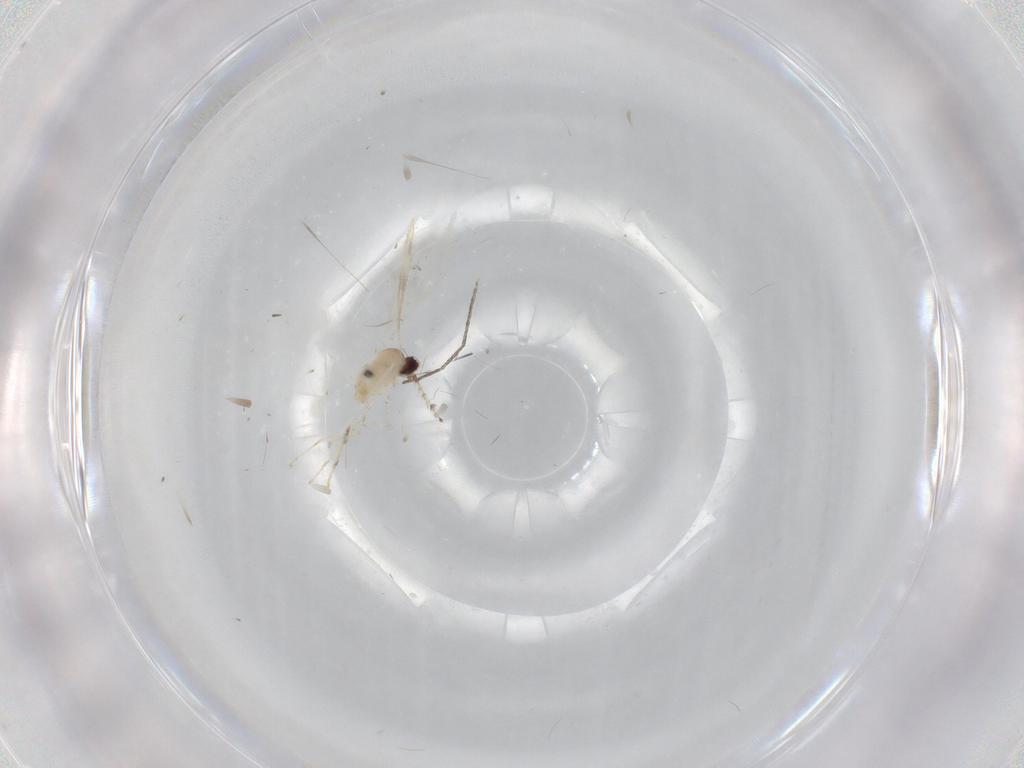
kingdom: Animalia
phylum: Arthropoda
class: Insecta
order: Diptera
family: Cecidomyiidae
